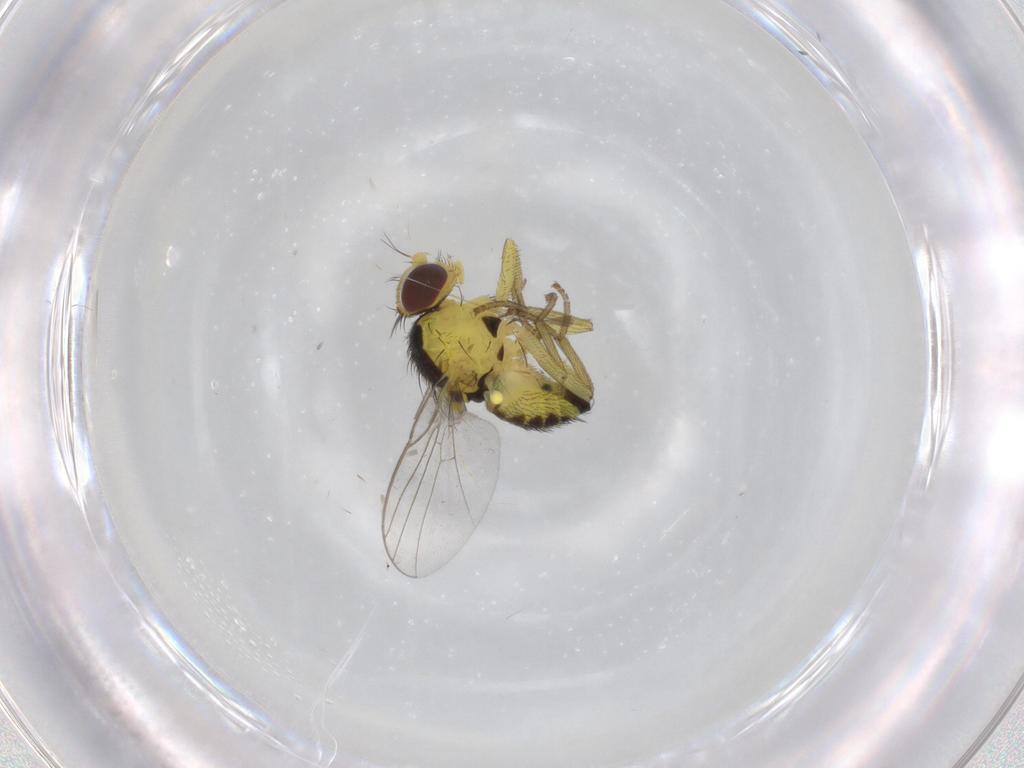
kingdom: Animalia
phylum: Arthropoda
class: Insecta
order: Diptera
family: Agromyzidae
